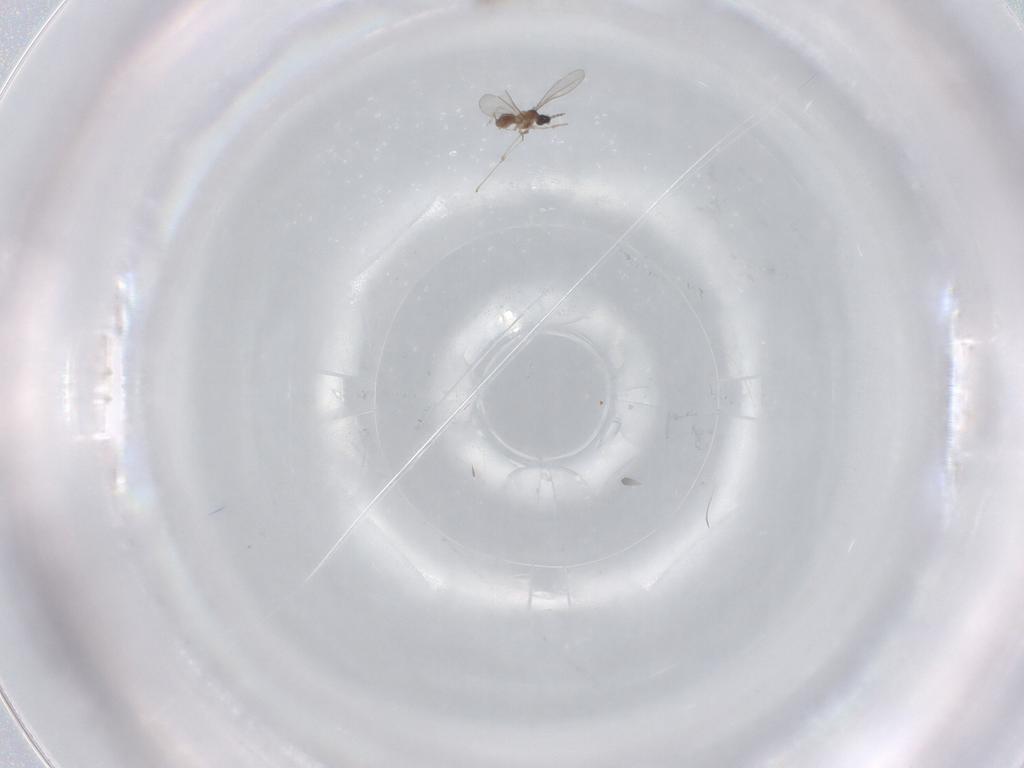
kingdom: Animalia
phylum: Arthropoda
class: Insecta
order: Diptera
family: Cecidomyiidae
